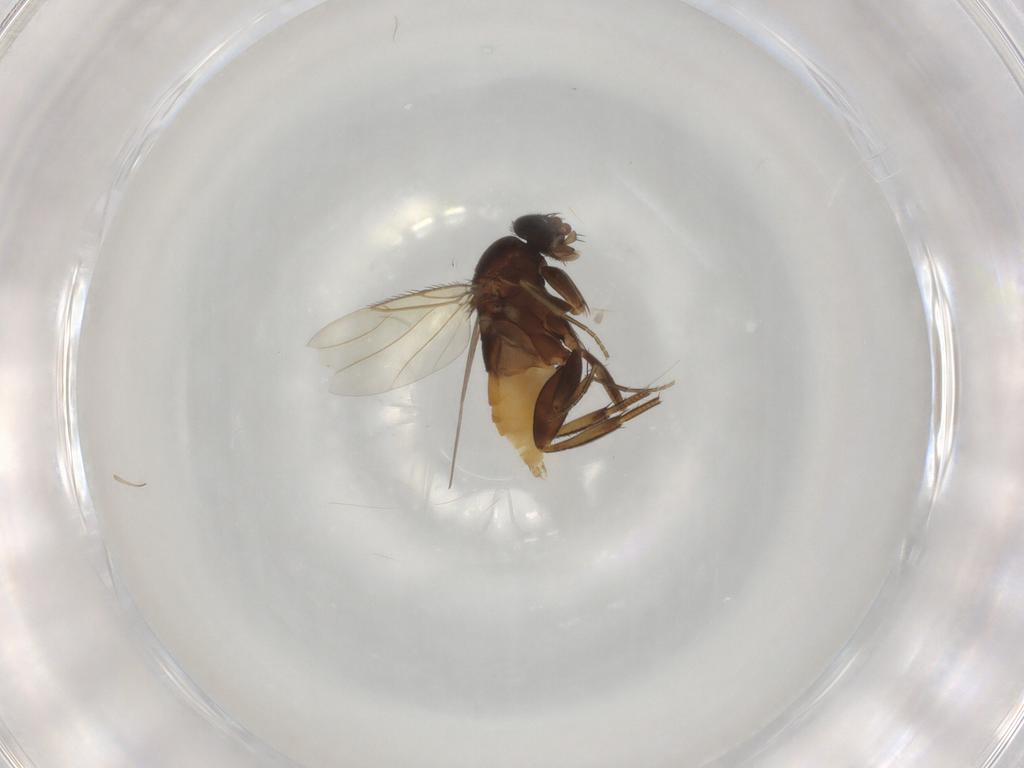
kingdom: Animalia
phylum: Arthropoda
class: Insecta
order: Diptera
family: Phoridae
